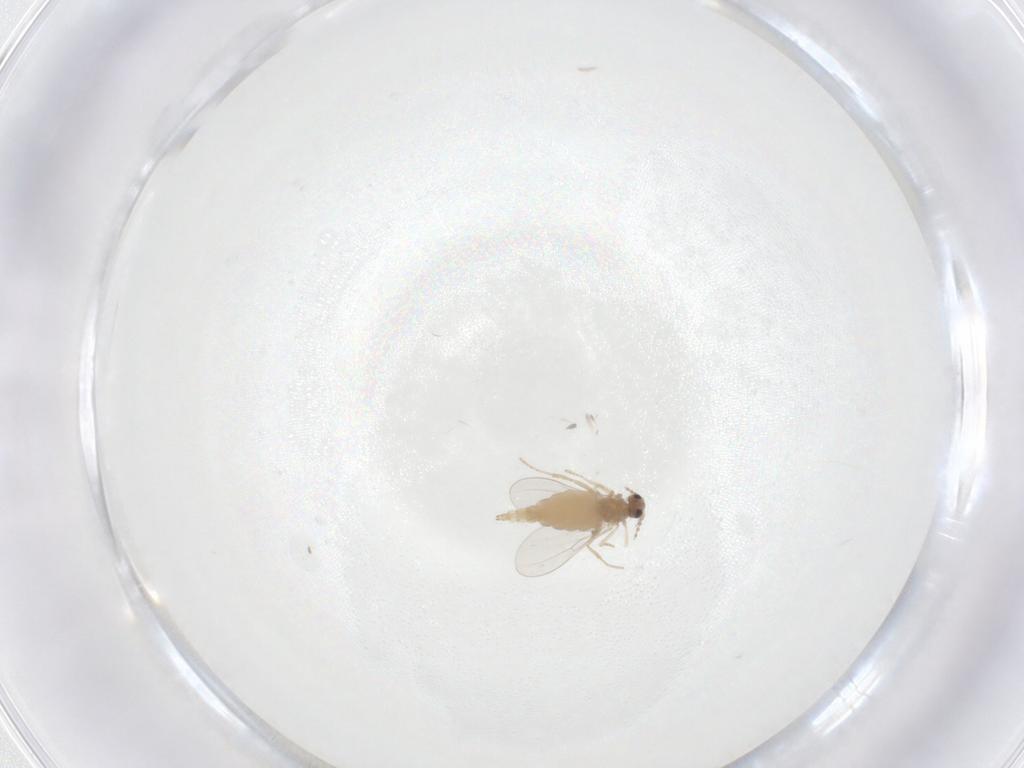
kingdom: Animalia
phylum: Arthropoda
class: Insecta
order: Diptera
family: Cecidomyiidae
